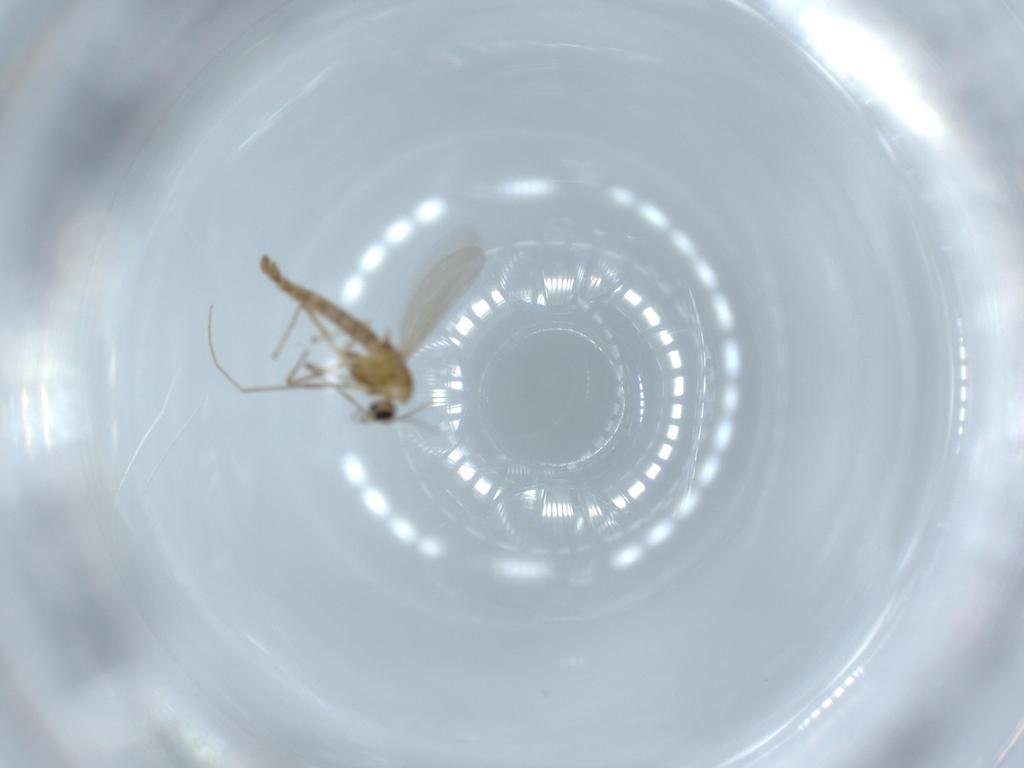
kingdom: Animalia
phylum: Arthropoda
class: Insecta
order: Diptera
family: Chironomidae
